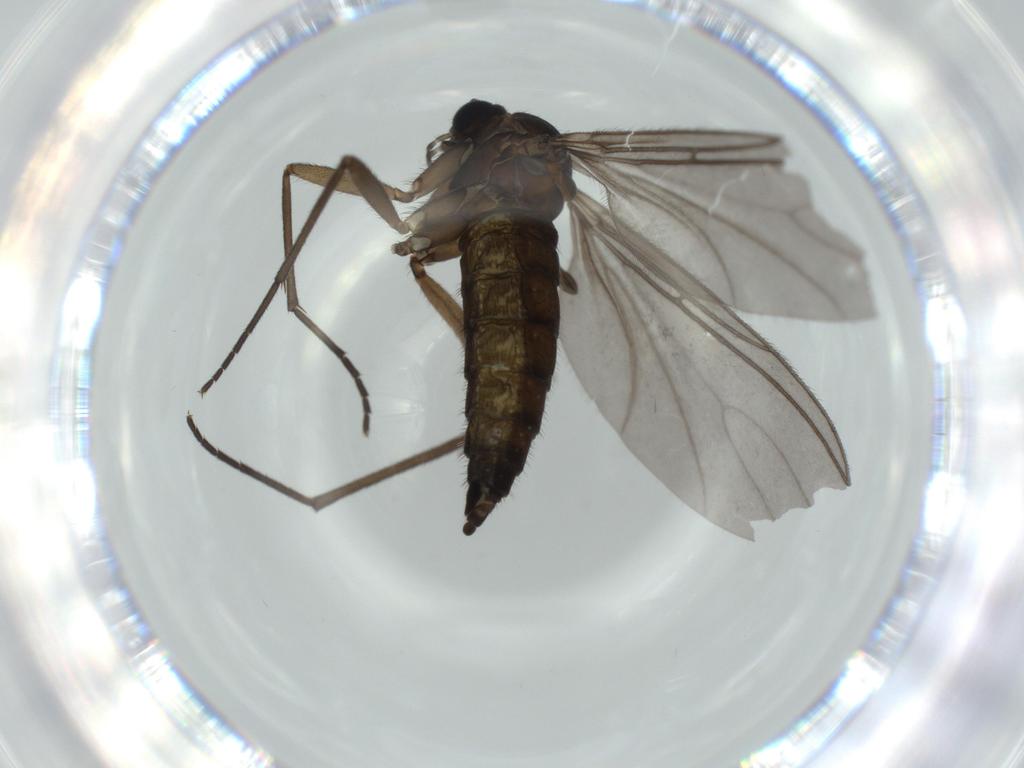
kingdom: Animalia
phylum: Arthropoda
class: Insecta
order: Diptera
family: Sciaridae
